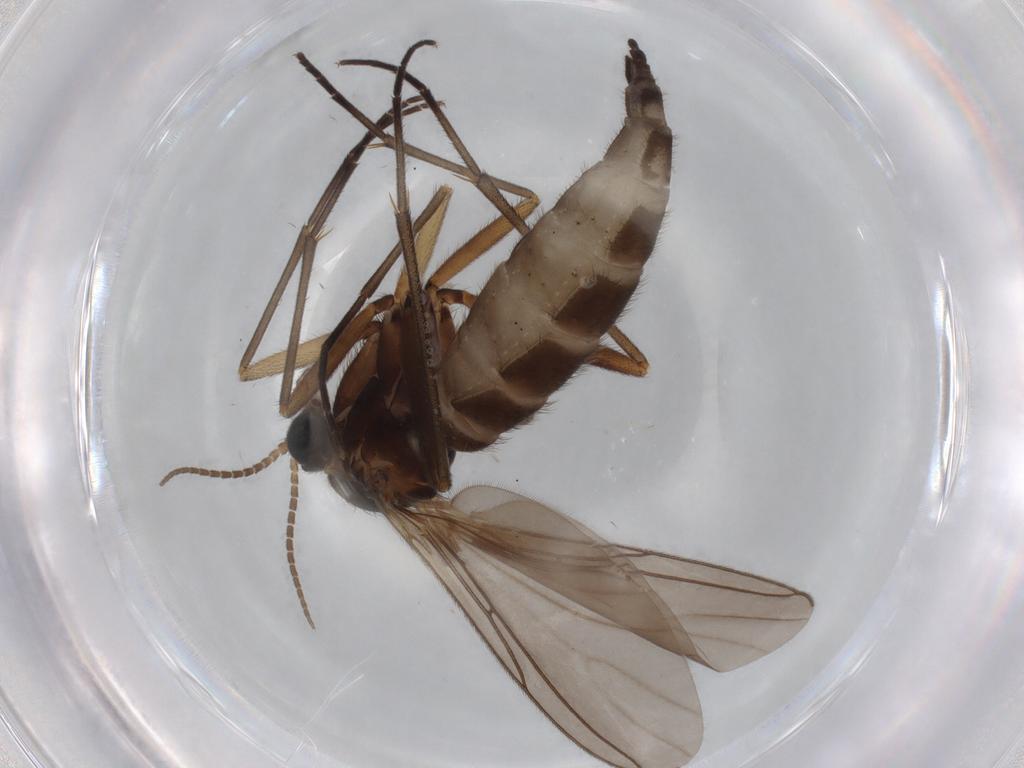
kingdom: Animalia
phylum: Arthropoda
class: Insecta
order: Diptera
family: Sciaridae
